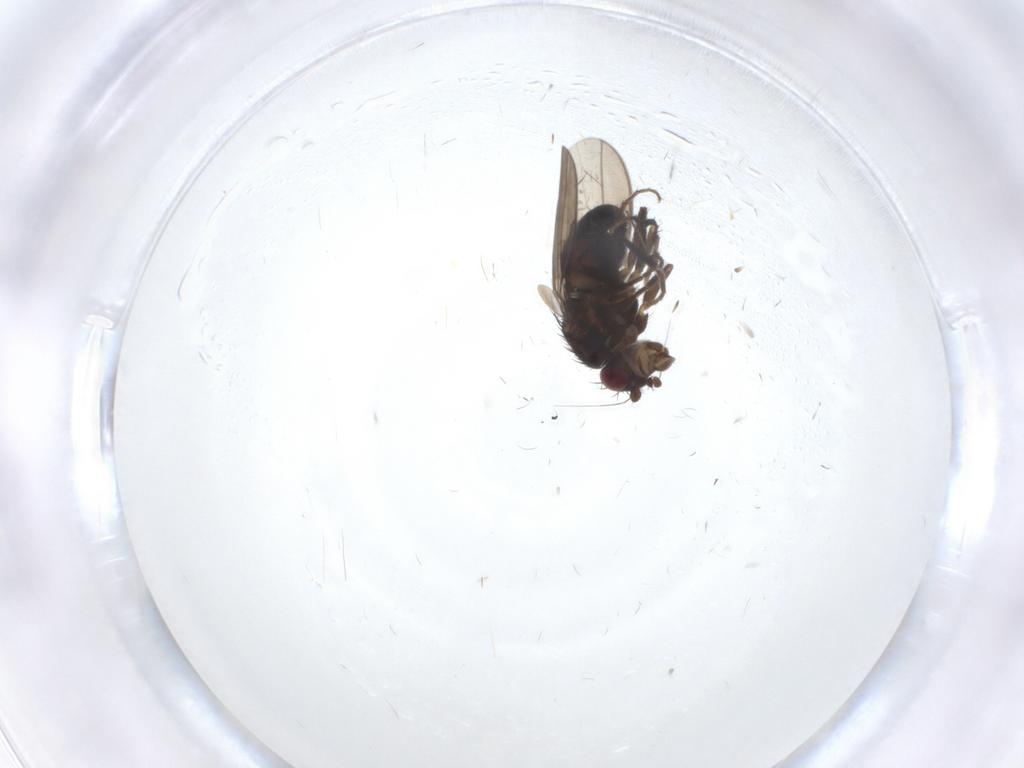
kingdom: Animalia
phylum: Arthropoda
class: Insecta
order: Diptera
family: Sciaridae
